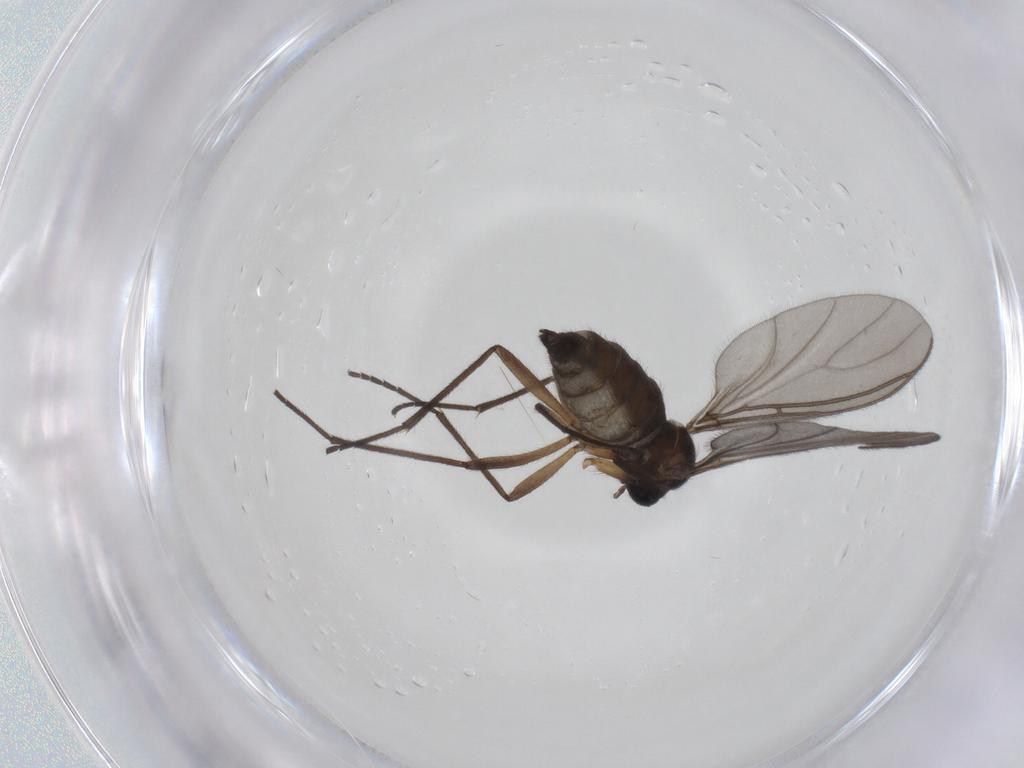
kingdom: Animalia
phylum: Arthropoda
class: Insecta
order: Diptera
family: Sciaridae
